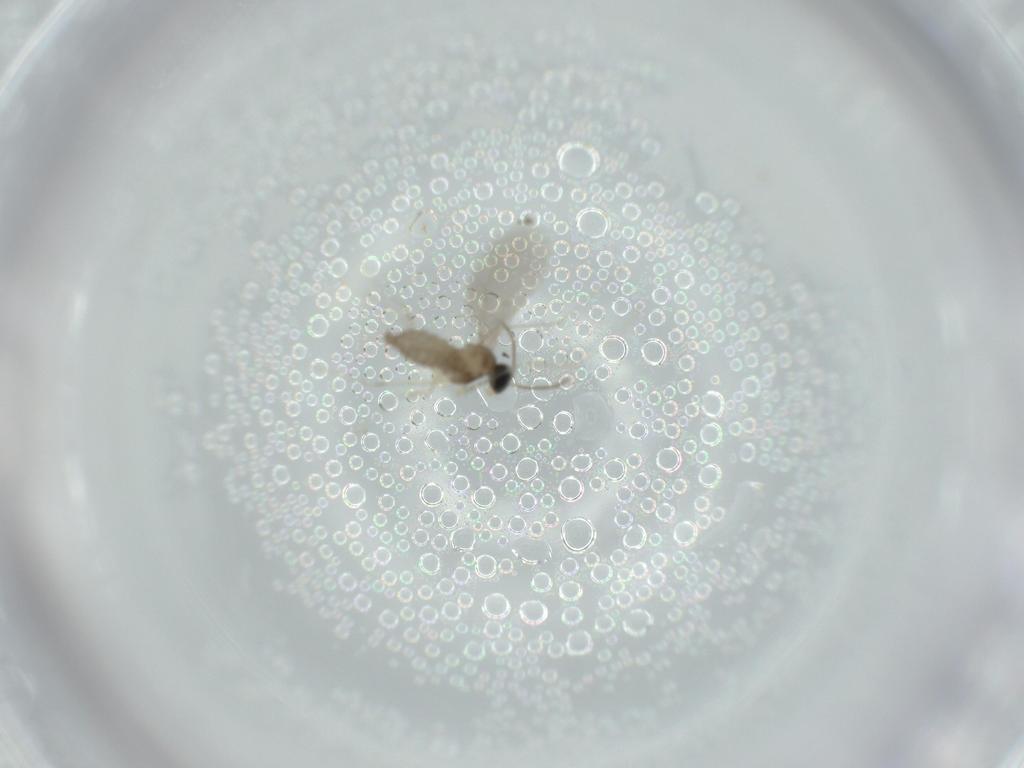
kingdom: Animalia
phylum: Arthropoda
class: Insecta
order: Diptera
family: Cecidomyiidae
